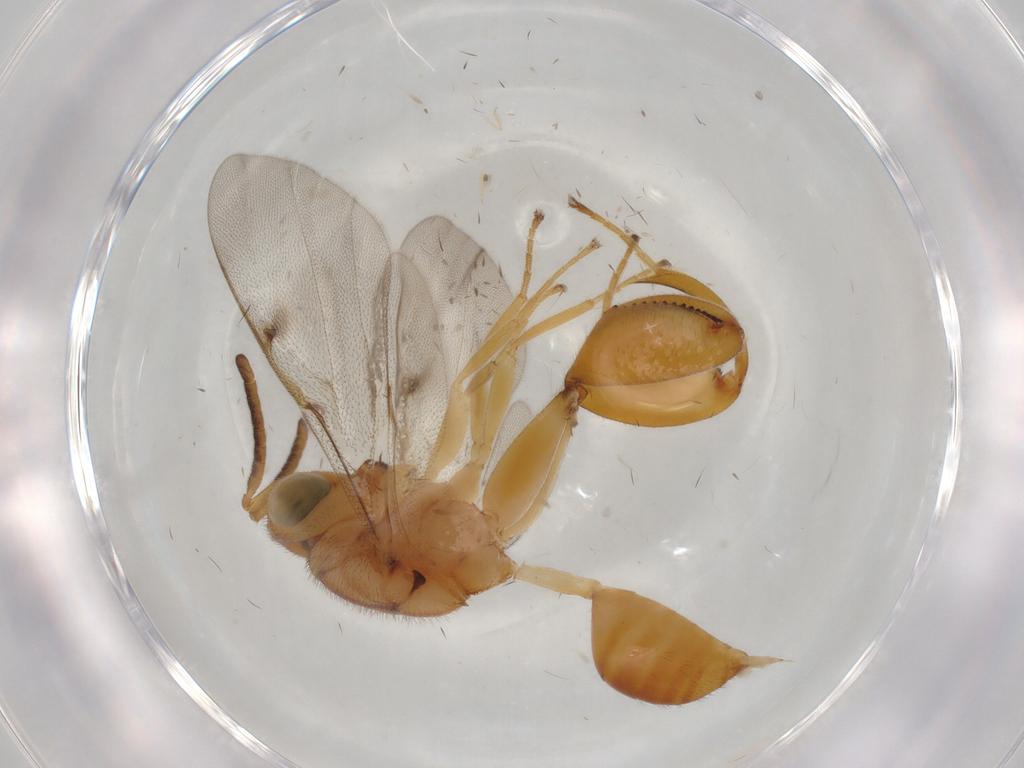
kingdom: Animalia
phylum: Arthropoda
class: Insecta
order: Hymenoptera
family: Chalcididae
